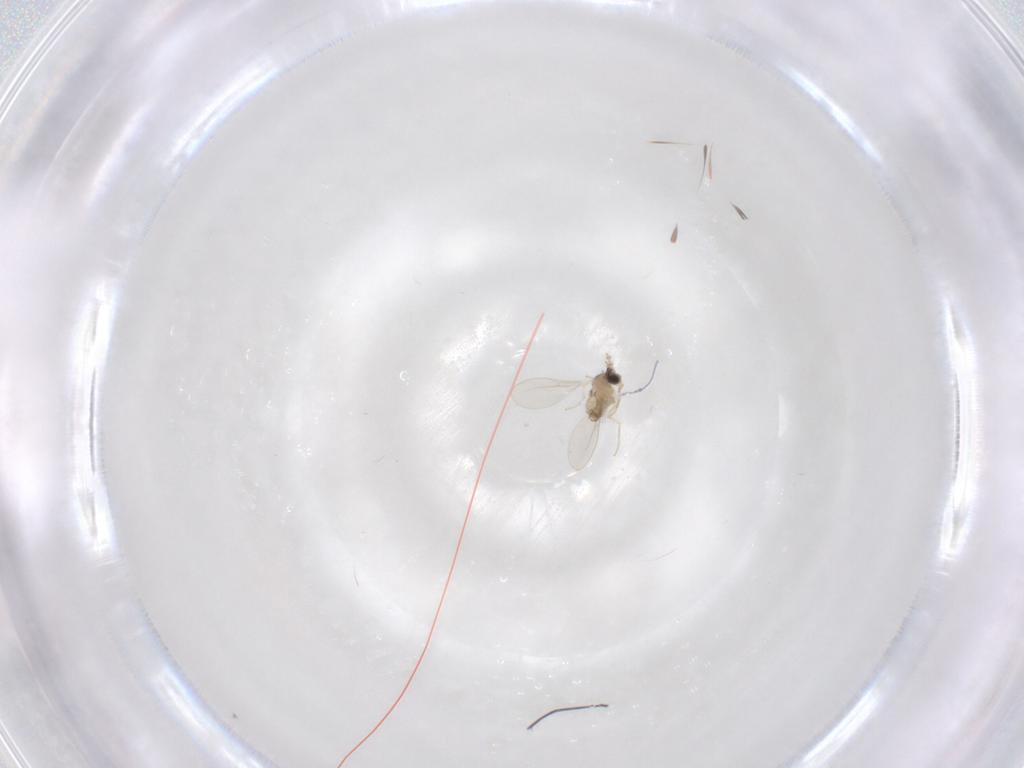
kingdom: Animalia
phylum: Arthropoda
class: Insecta
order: Diptera
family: Cecidomyiidae
